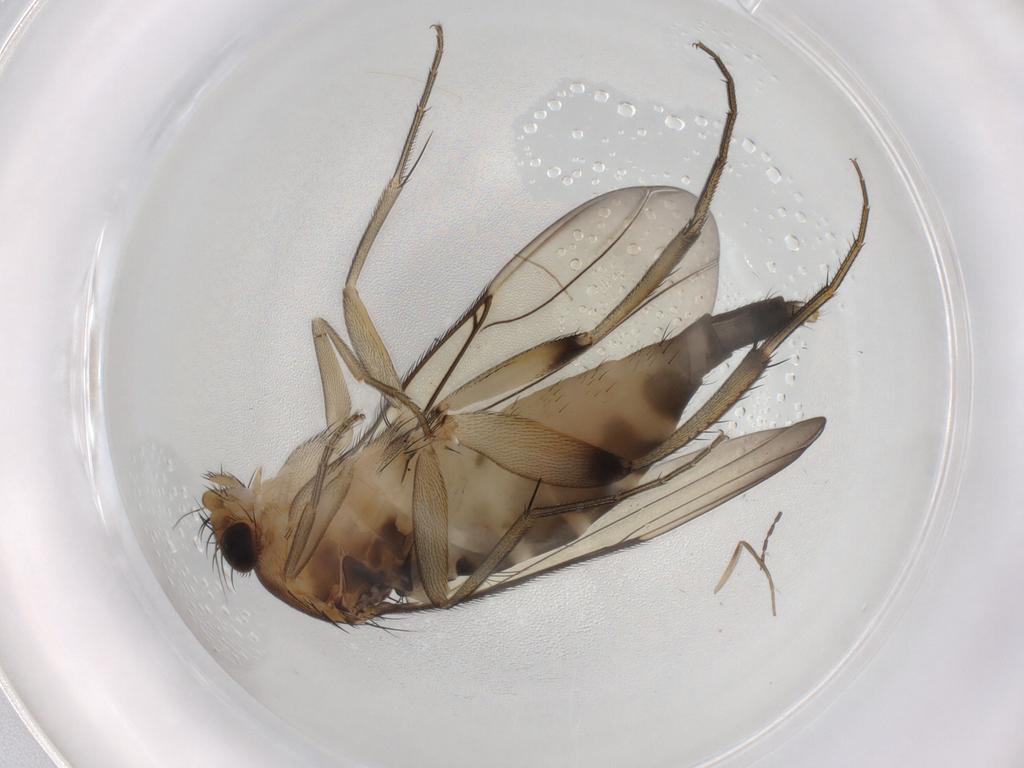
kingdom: Animalia
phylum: Arthropoda
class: Insecta
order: Diptera
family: Phoridae
